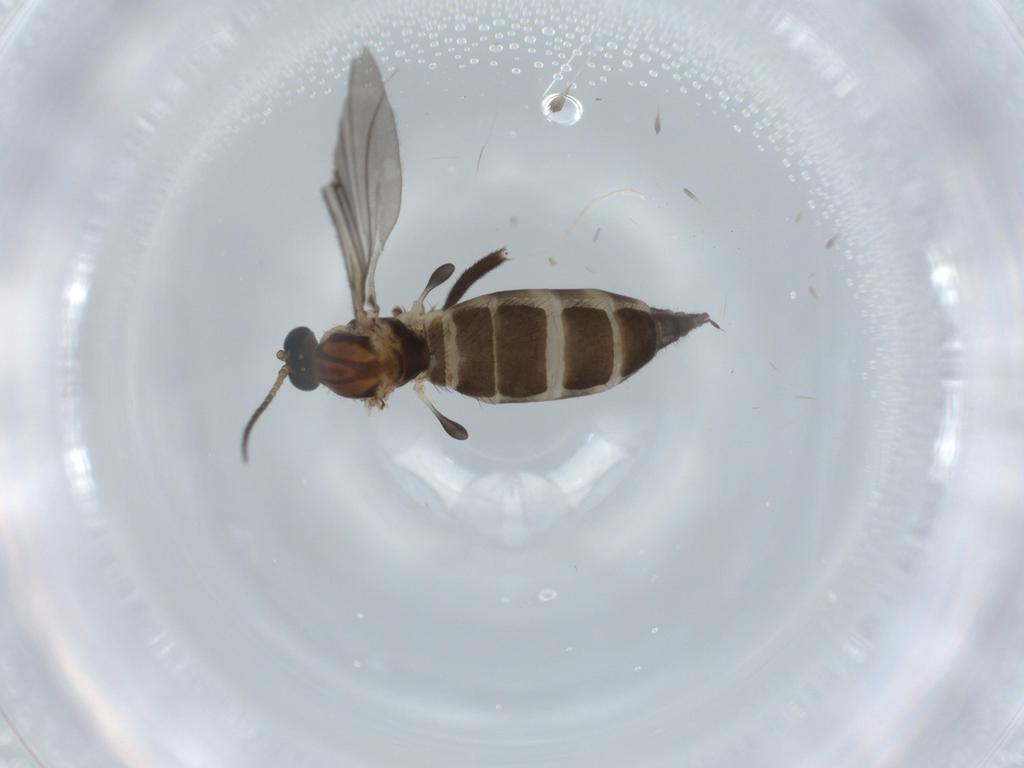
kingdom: Animalia
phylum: Arthropoda
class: Insecta
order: Diptera
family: Sciaridae
